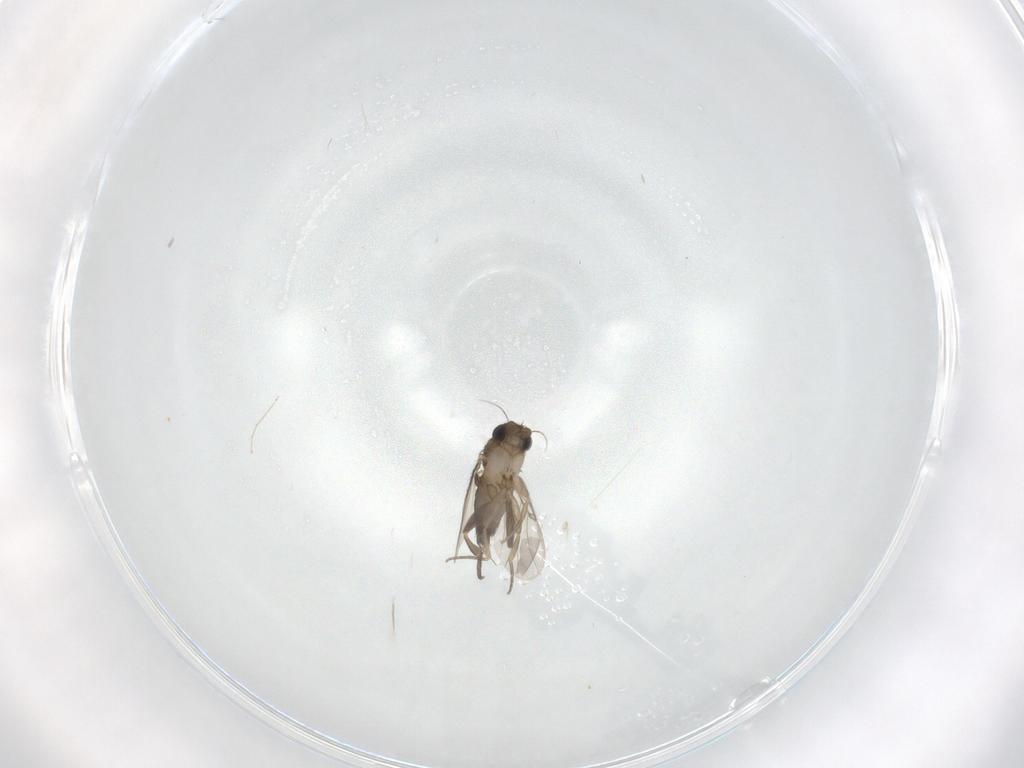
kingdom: Animalia
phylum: Arthropoda
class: Insecta
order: Diptera
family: Phoridae
